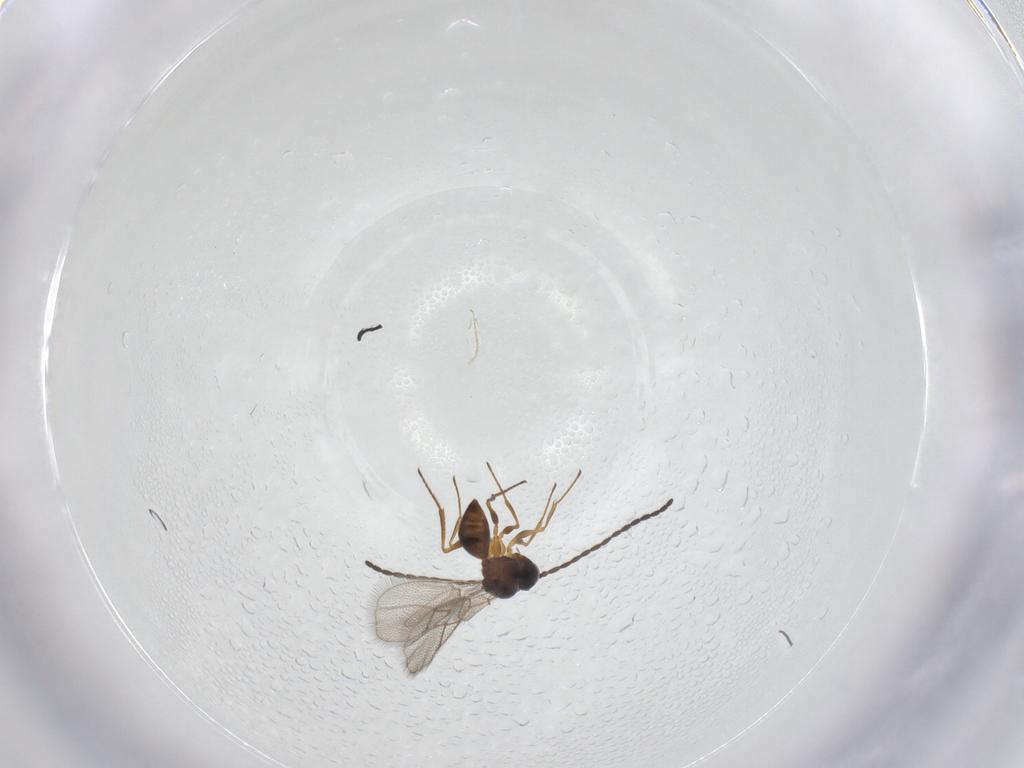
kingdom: Animalia
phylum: Arthropoda
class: Insecta
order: Hymenoptera
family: Figitidae
